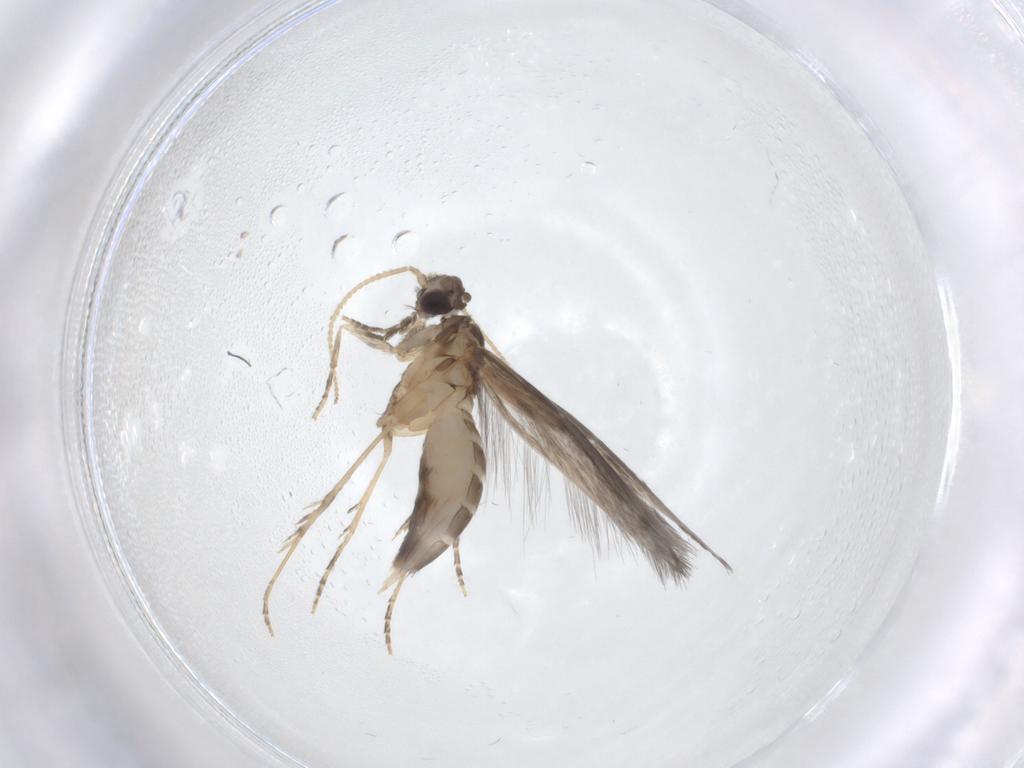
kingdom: Animalia
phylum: Arthropoda
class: Insecta
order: Trichoptera
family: Hydroptilidae
